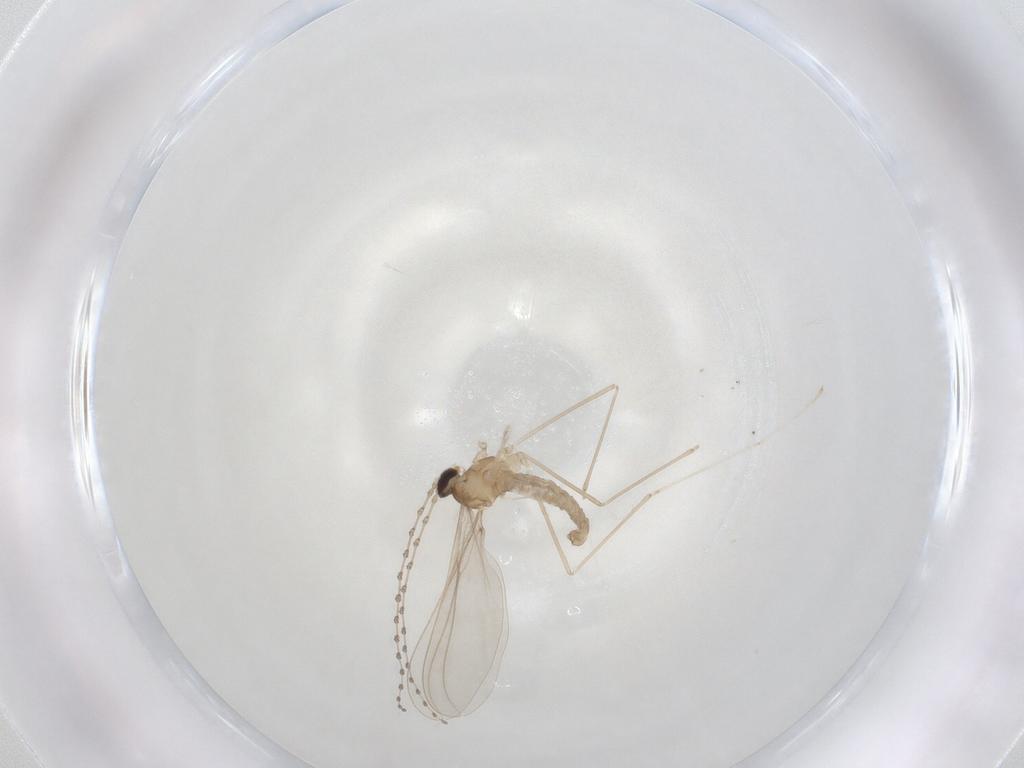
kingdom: Animalia
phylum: Arthropoda
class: Insecta
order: Diptera
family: Cecidomyiidae
